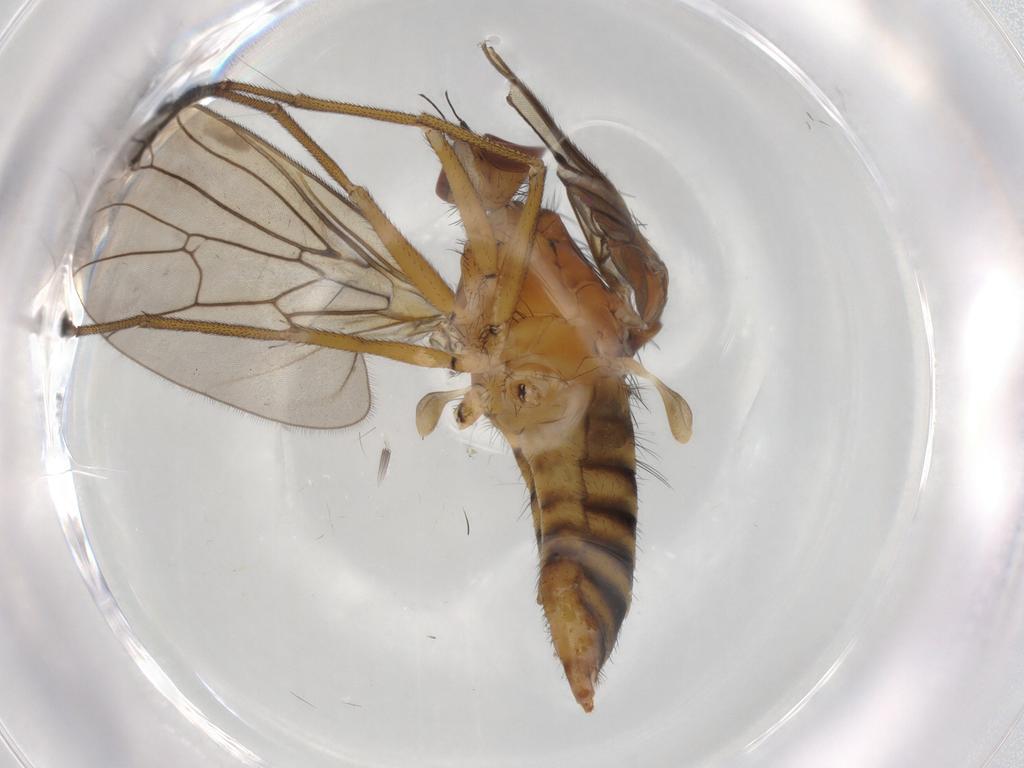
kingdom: Animalia
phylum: Arthropoda
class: Insecta
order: Diptera
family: Brachystomatidae
